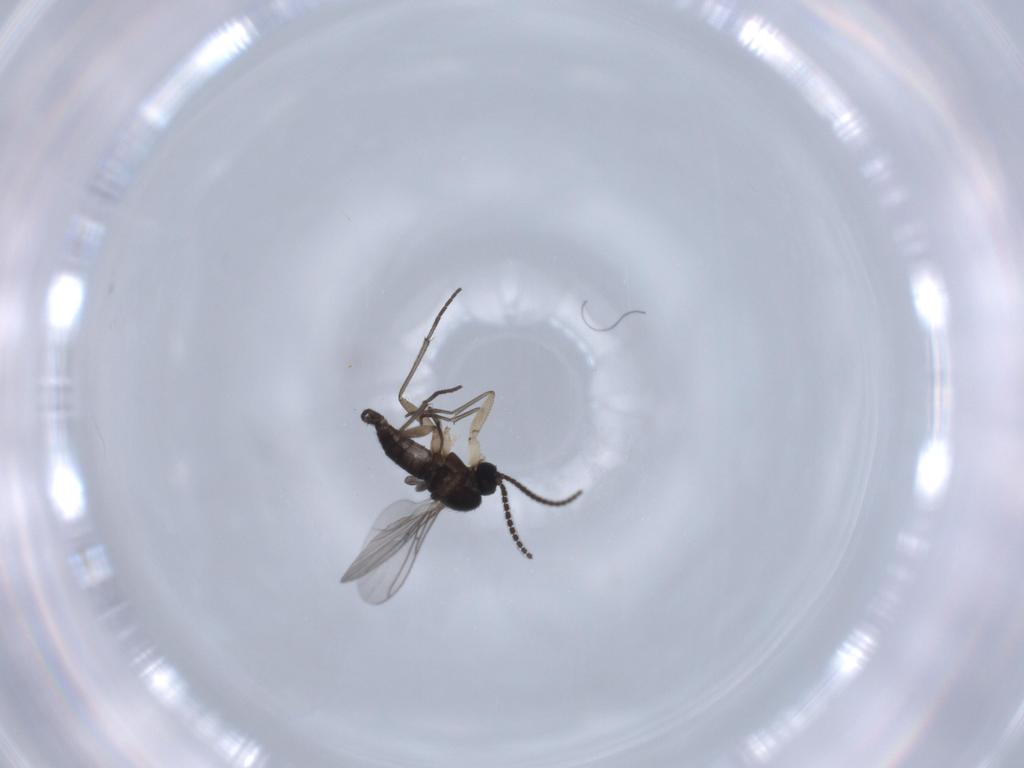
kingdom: Animalia
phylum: Arthropoda
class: Insecta
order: Diptera
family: Sciaridae
